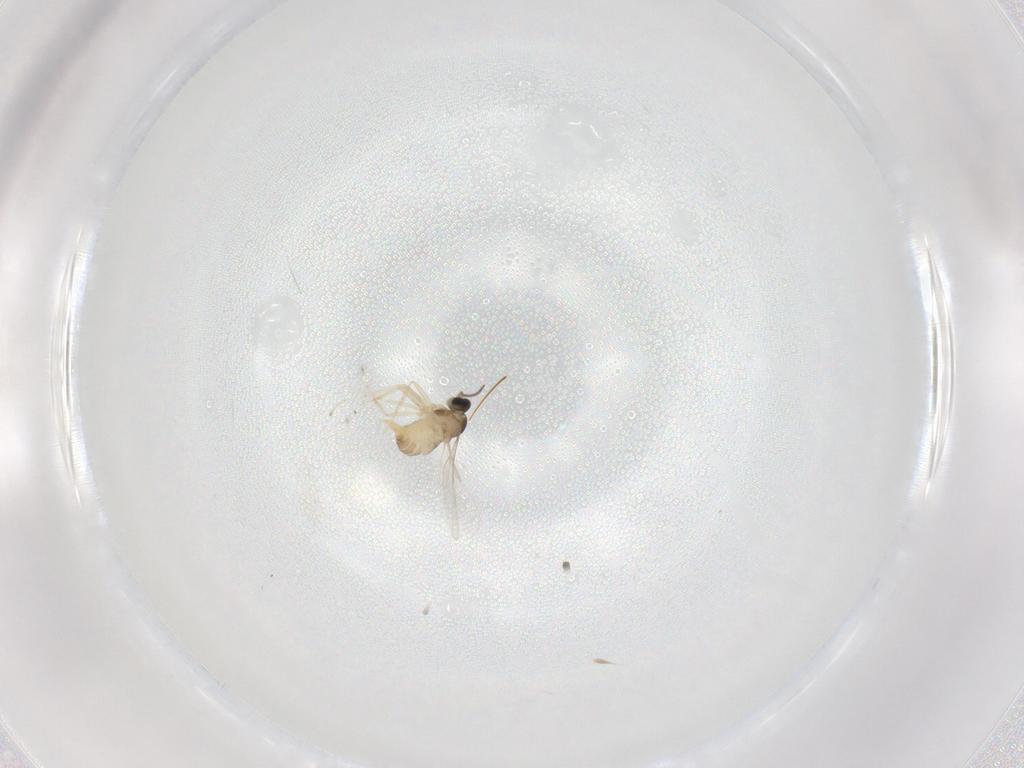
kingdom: Animalia
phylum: Arthropoda
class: Insecta
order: Diptera
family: Cecidomyiidae
